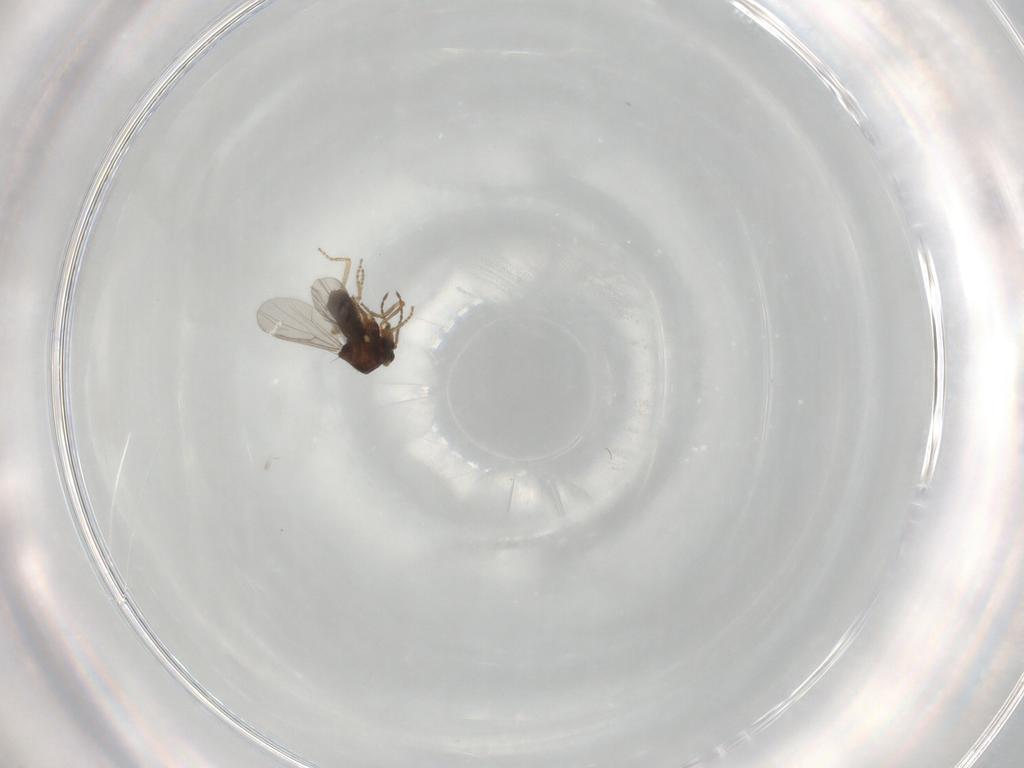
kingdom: Animalia
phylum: Arthropoda
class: Insecta
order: Diptera
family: Ceratopogonidae
